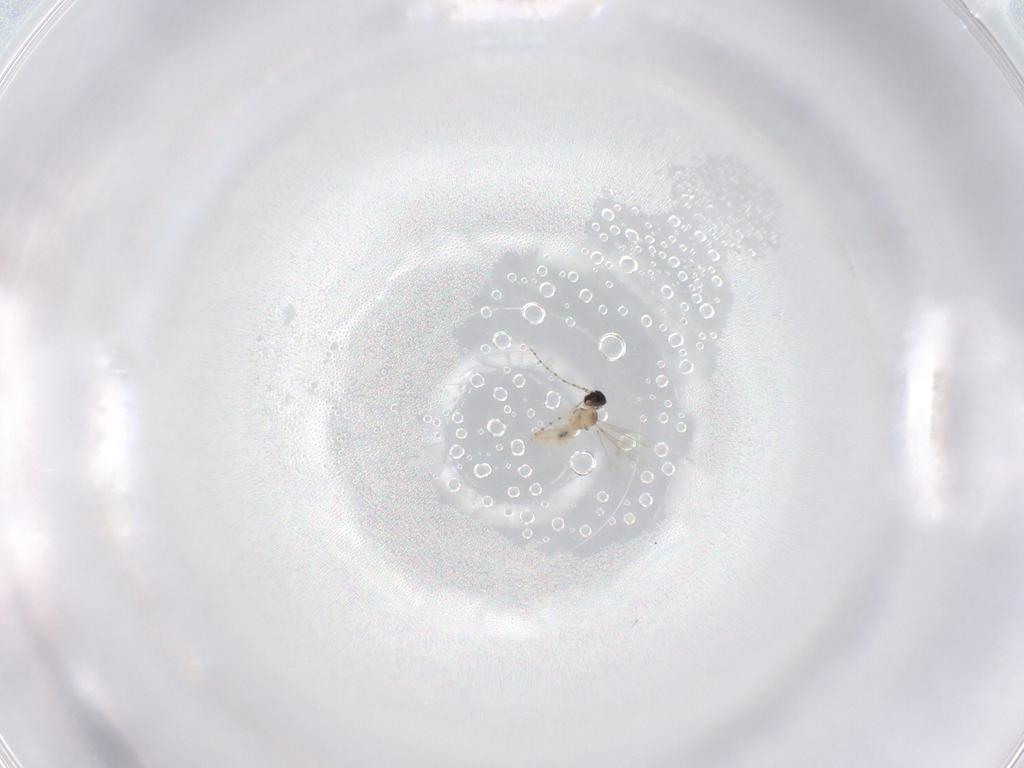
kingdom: Animalia
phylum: Arthropoda
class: Insecta
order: Diptera
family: Cecidomyiidae
